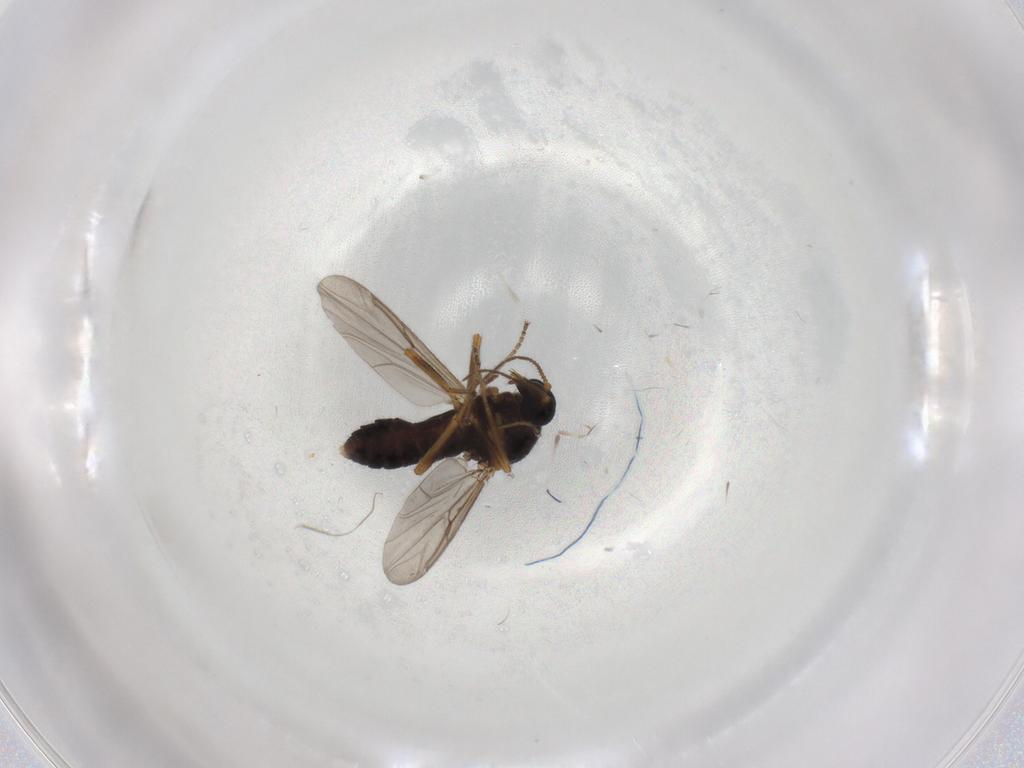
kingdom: Animalia
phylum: Arthropoda
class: Insecta
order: Diptera
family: Ceratopogonidae
